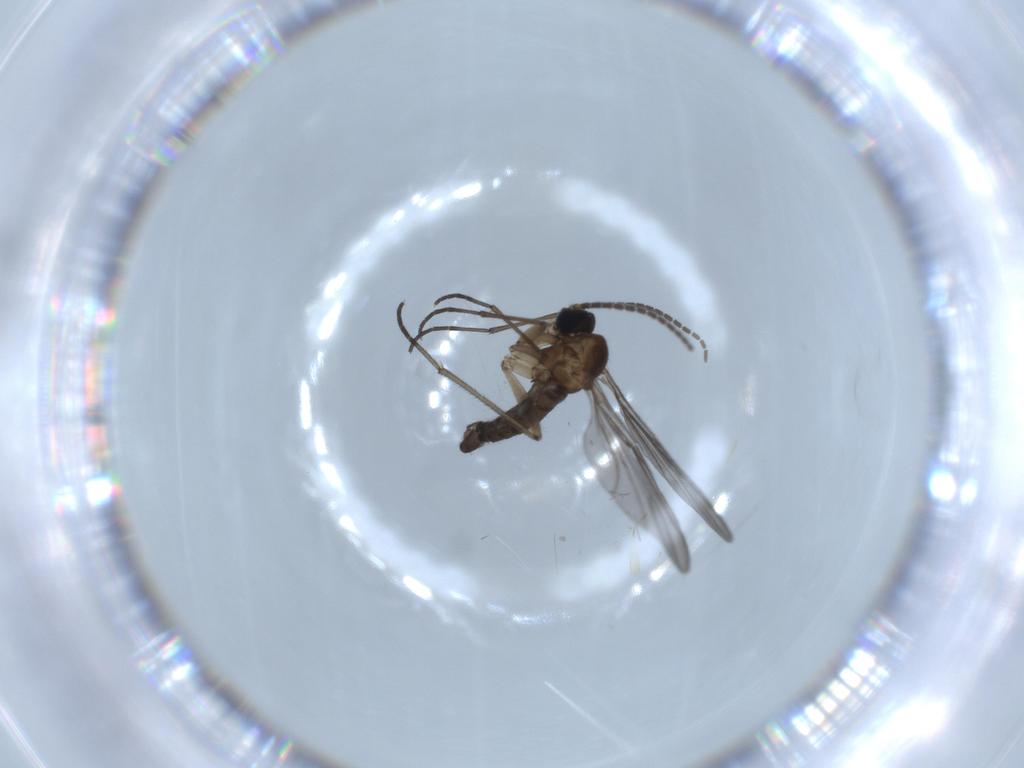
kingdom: Animalia
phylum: Arthropoda
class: Insecta
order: Diptera
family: Sciaridae
